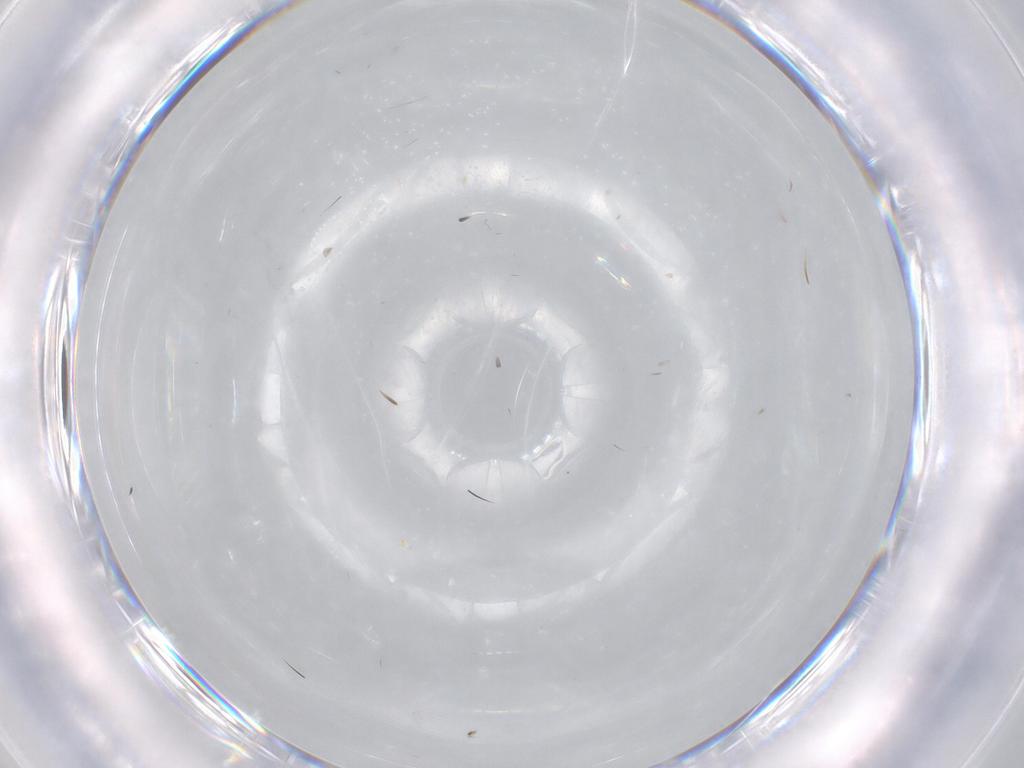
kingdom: Animalia
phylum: Arthropoda
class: Insecta
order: Diptera
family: Chironomidae
